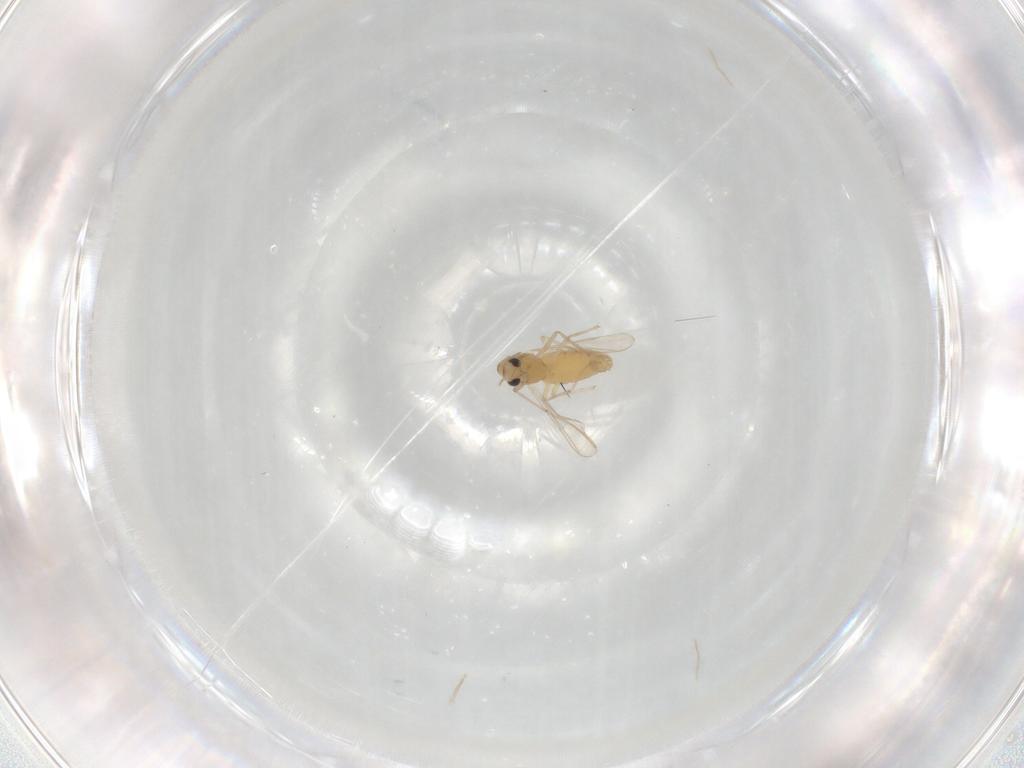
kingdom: Animalia
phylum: Arthropoda
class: Insecta
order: Diptera
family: Chironomidae
